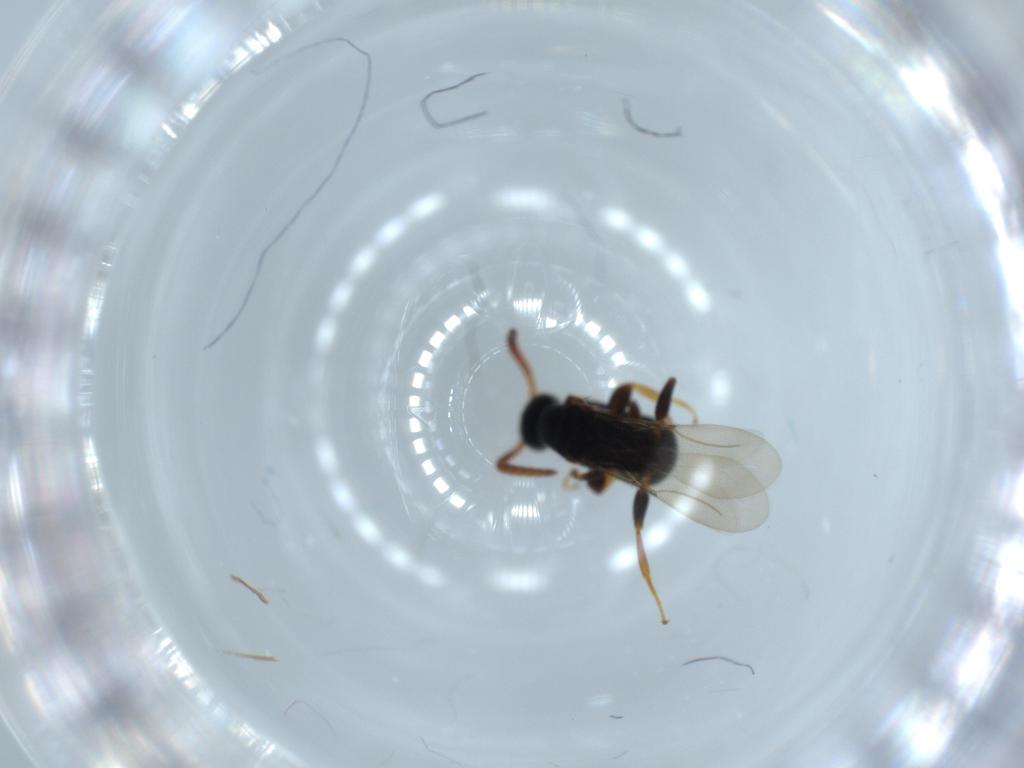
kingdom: Animalia
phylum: Arthropoda
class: Insecta
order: Hymenoptera
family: Bethylidae
